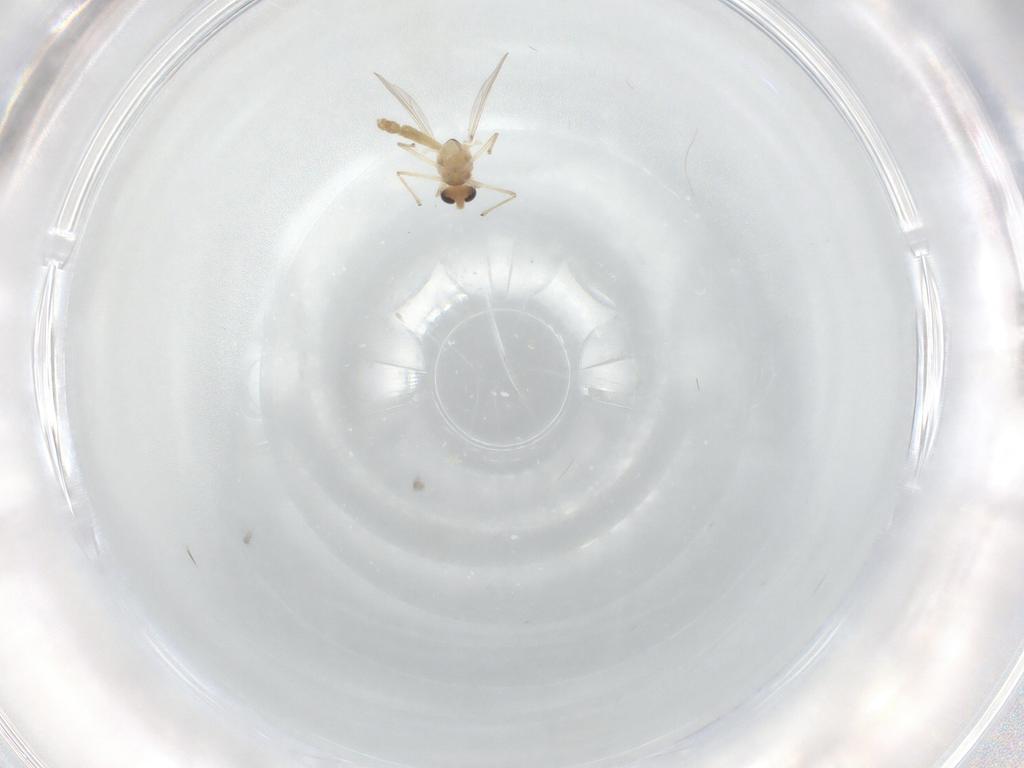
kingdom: Animalia
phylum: Arthropoda
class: Insecta
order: Diptera
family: Chironomidae
